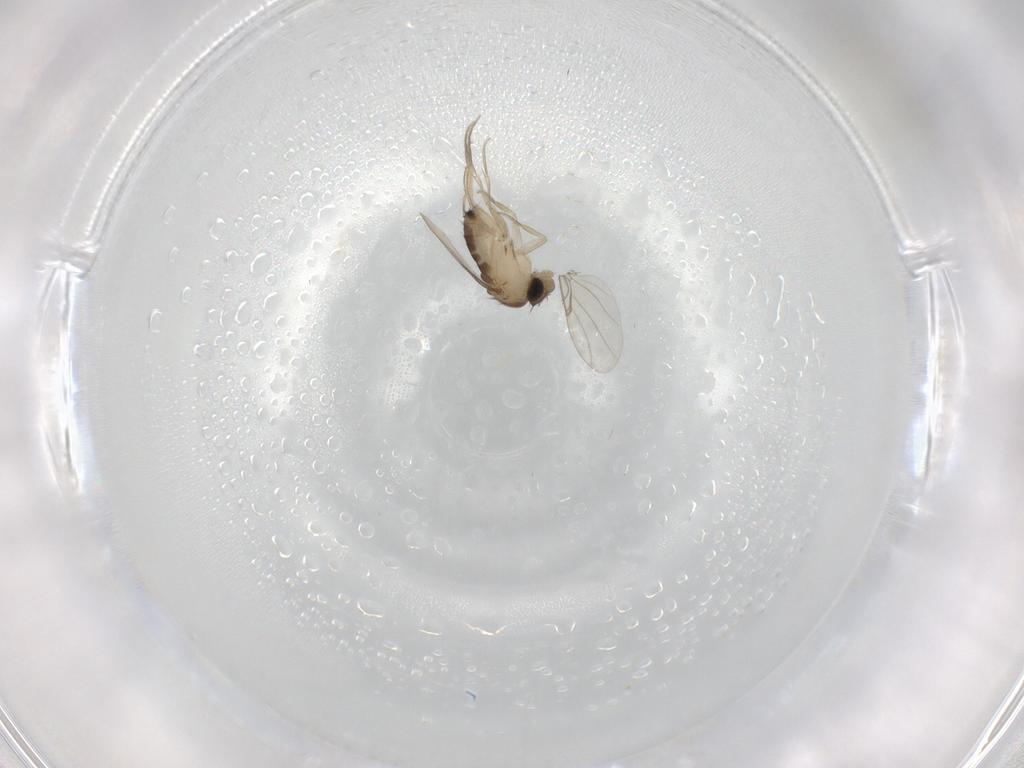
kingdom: Animalia
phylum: Arthropoda
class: Insecta
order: Diptera
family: Phoridae
